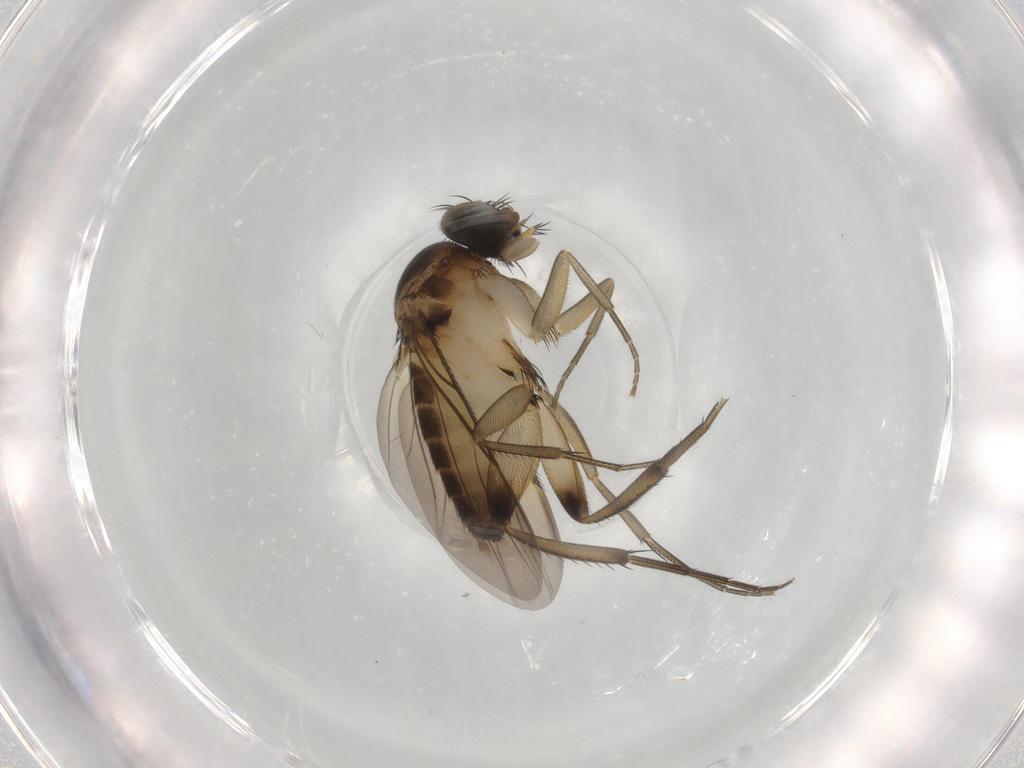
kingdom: Animalia
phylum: Arthropoda
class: Insecta
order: Diptera
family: Phoridae
